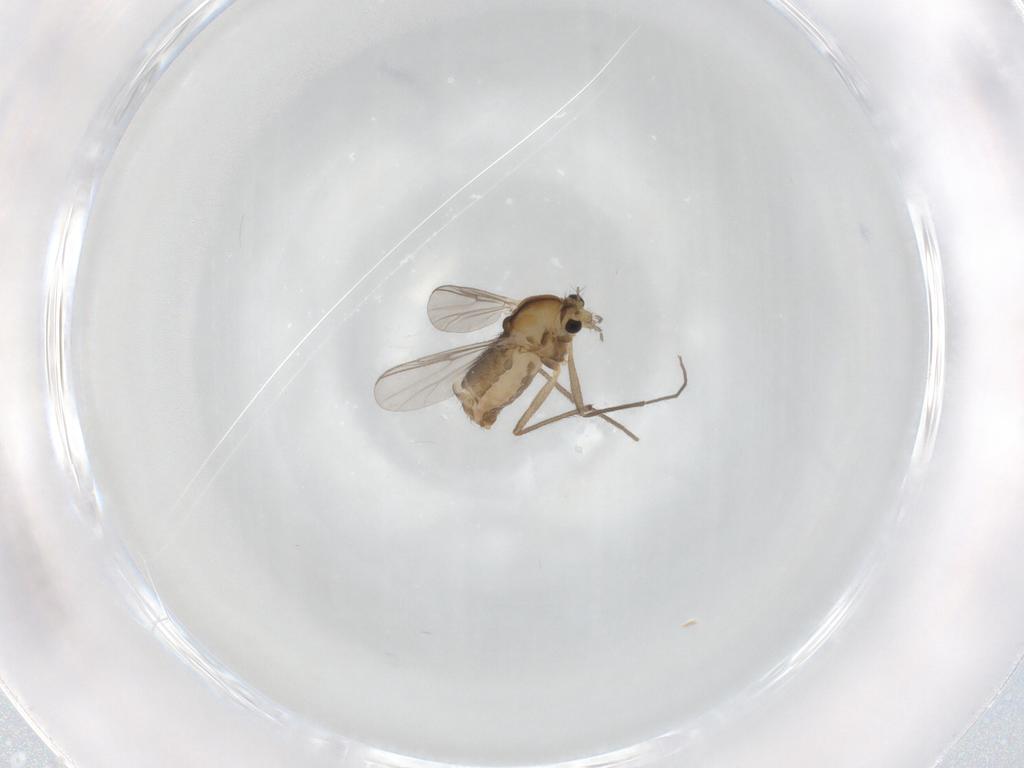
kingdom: Animalia
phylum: Arthropoda
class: Insecta
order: Diptera
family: Chironomidae
